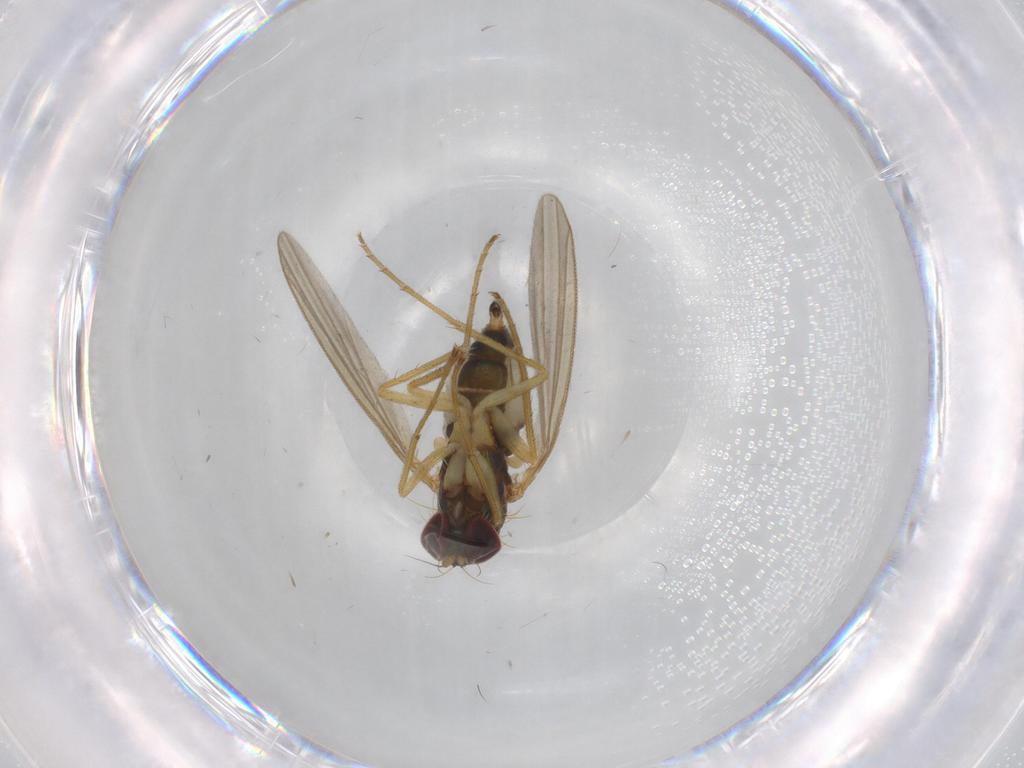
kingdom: Animalia
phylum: Arthropoda
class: Insecta
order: Diptera
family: Dolichopodidae
